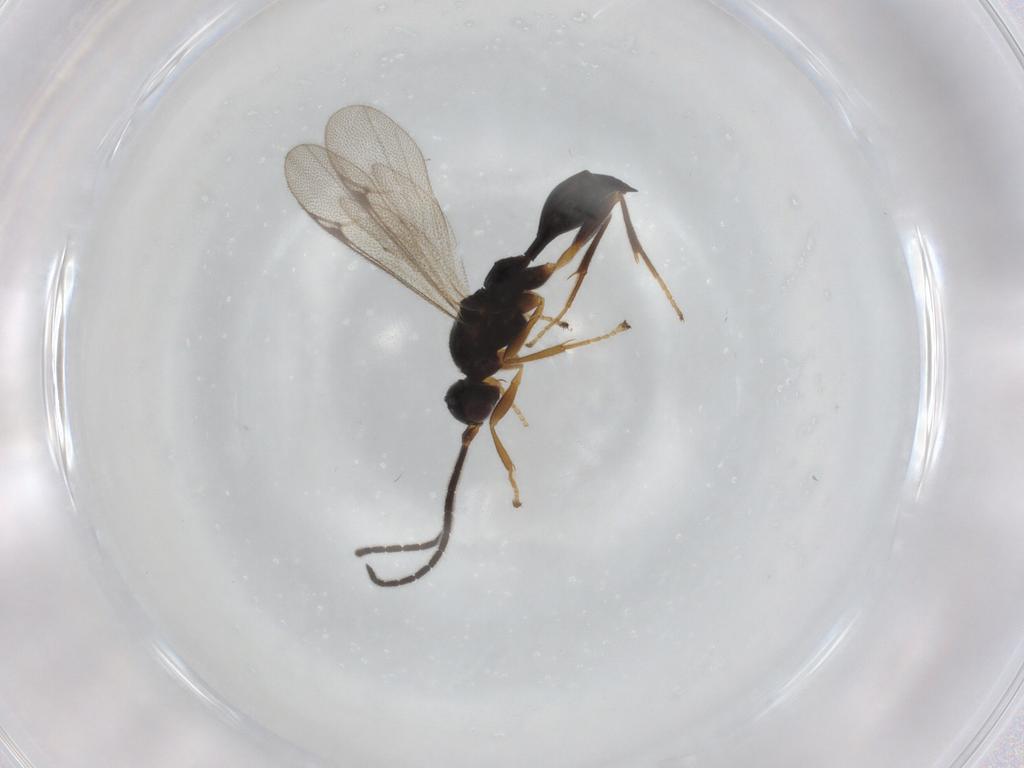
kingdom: Animalia
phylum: Arthropoda
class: Insecta
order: Hymenoptera
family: Proctotrupidae
